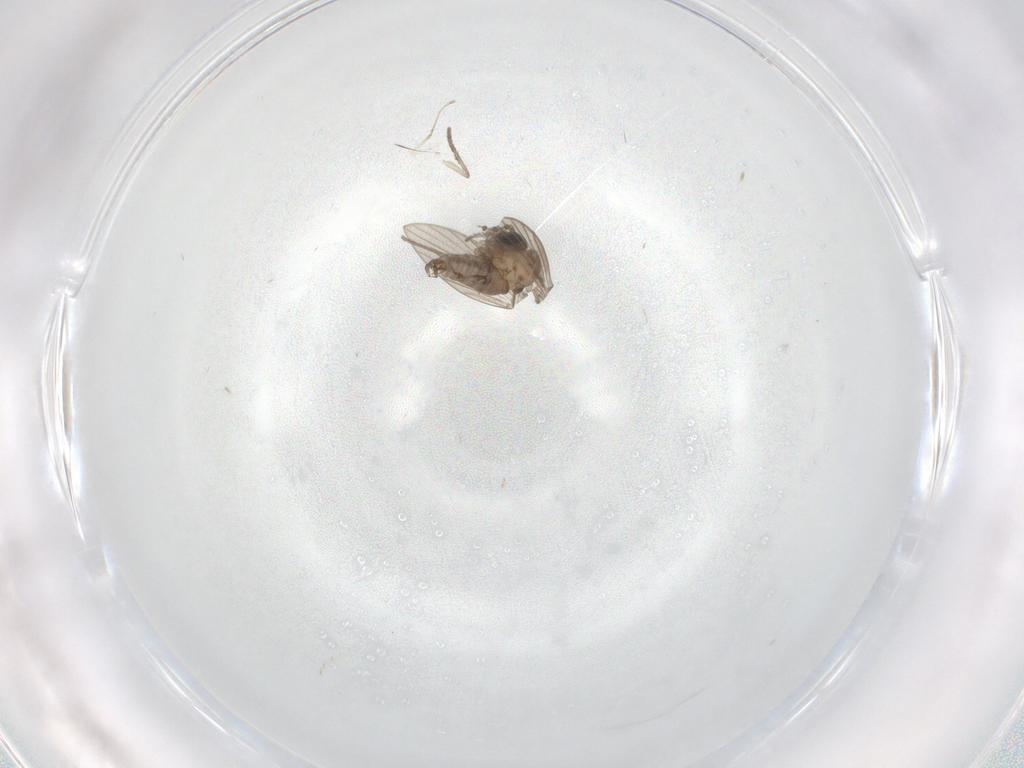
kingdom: Animalia
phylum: Arthropoda
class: Insecta
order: Diptera
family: Psychodidae
